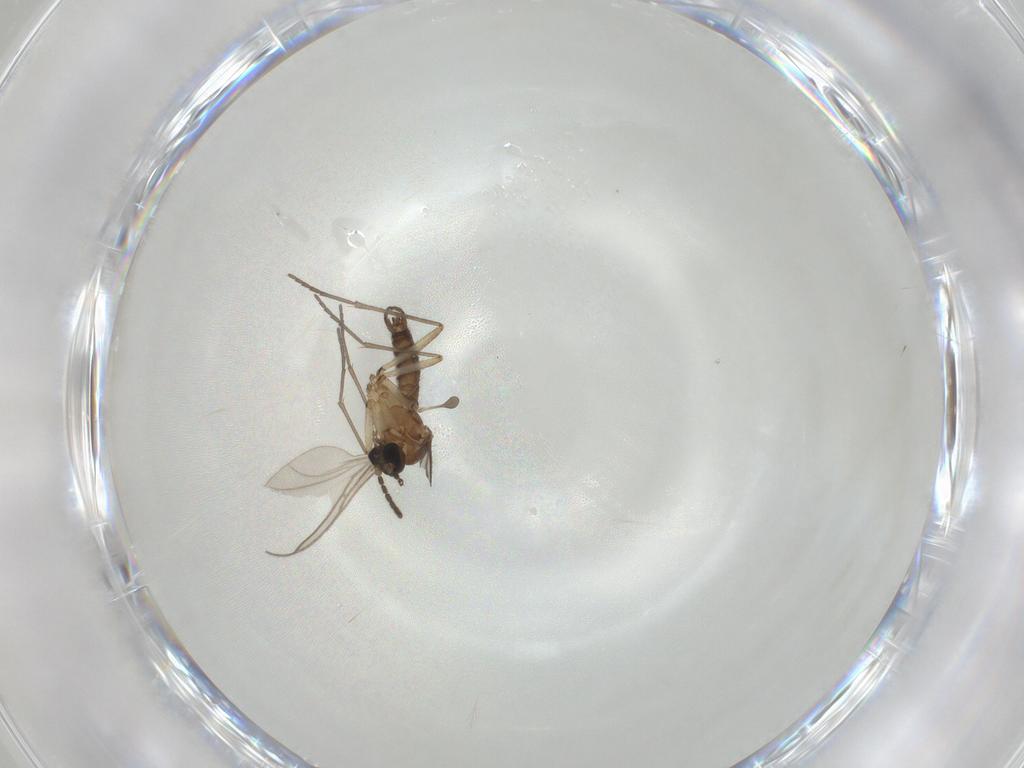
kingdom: Animalia
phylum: Arthropoda
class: Insecta
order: Diptera
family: Sciaridae
